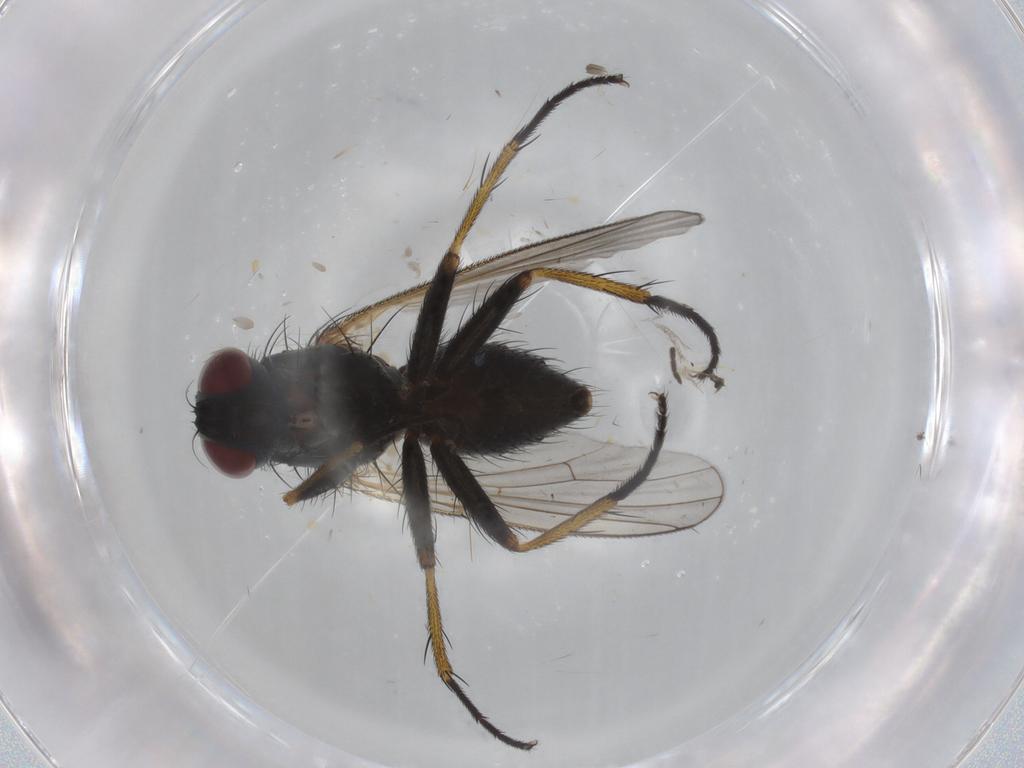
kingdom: Animalia
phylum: Arthropoda
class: Insecta
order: Diptera
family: Muscidae
